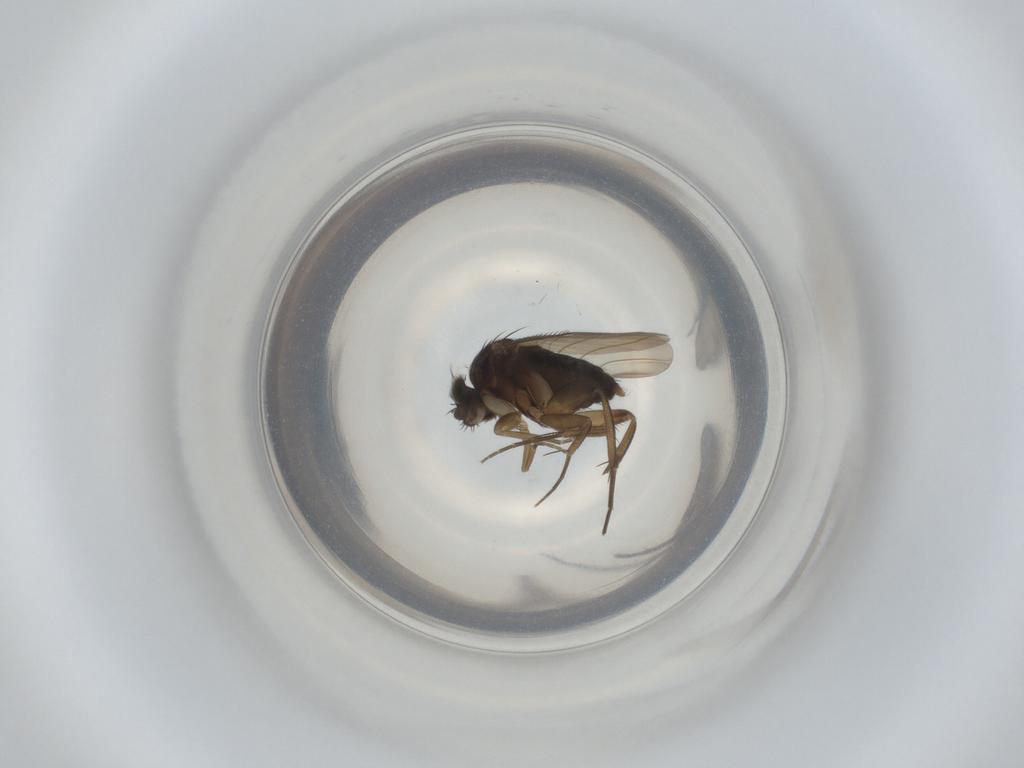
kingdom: Animalia
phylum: Arthropoda
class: Insecta
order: Diptera
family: Phoridae
